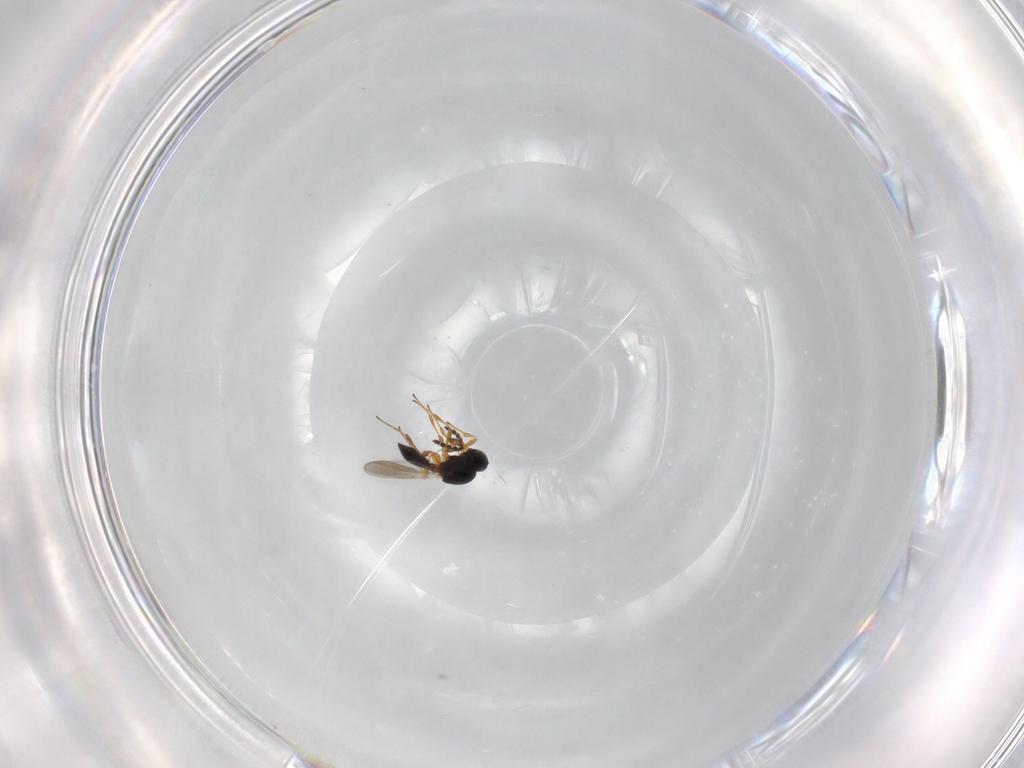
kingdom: Animalia
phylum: Arthropoda
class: Insecta
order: Hymenoptera
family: Platygastridae
